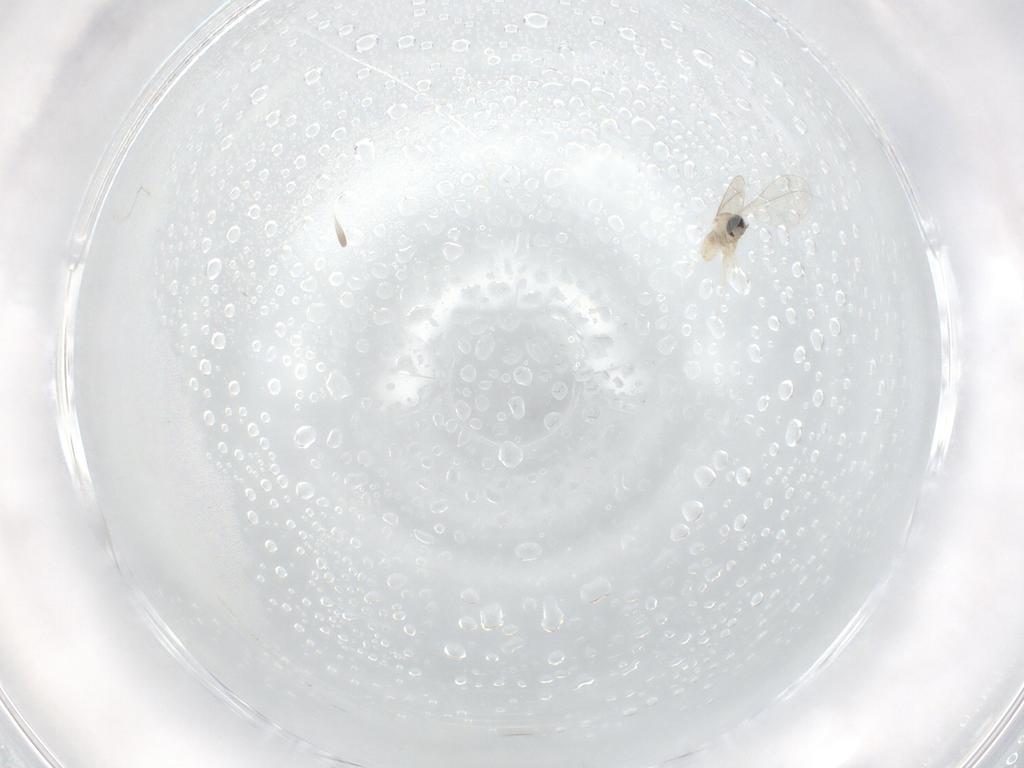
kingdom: Animalia
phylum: Arthropoda
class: Insecta
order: Diptera
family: Cecidomyiidae
